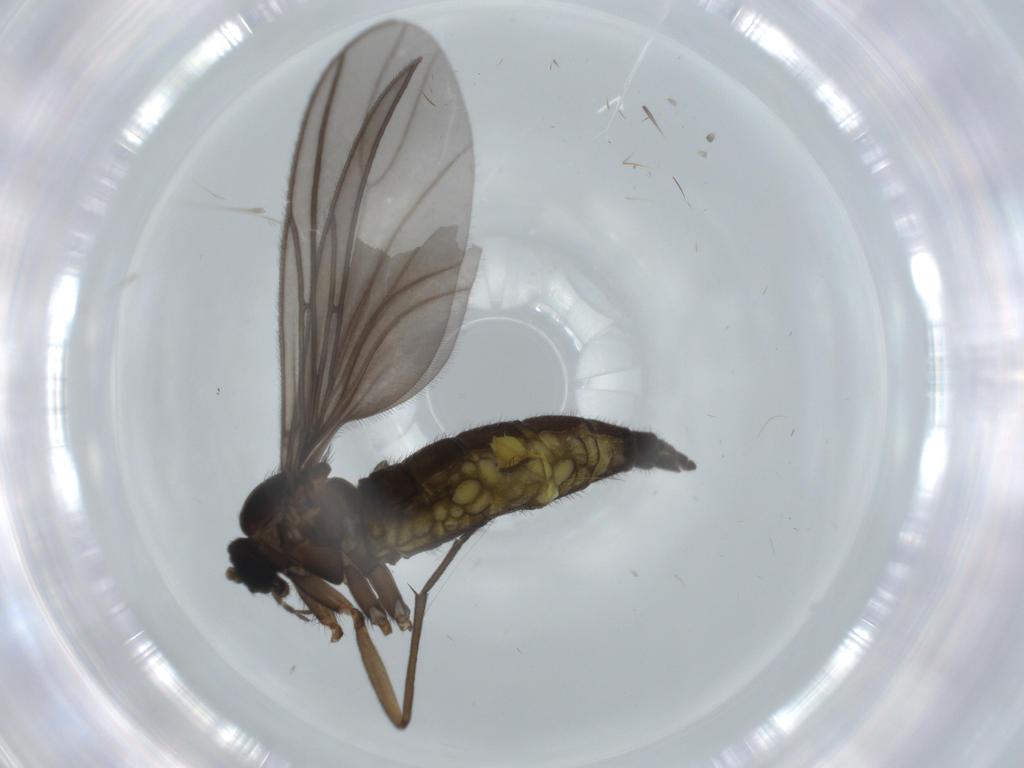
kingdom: Animalia
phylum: Arthropoda
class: Insecta
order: Diptera
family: Sciaridae
